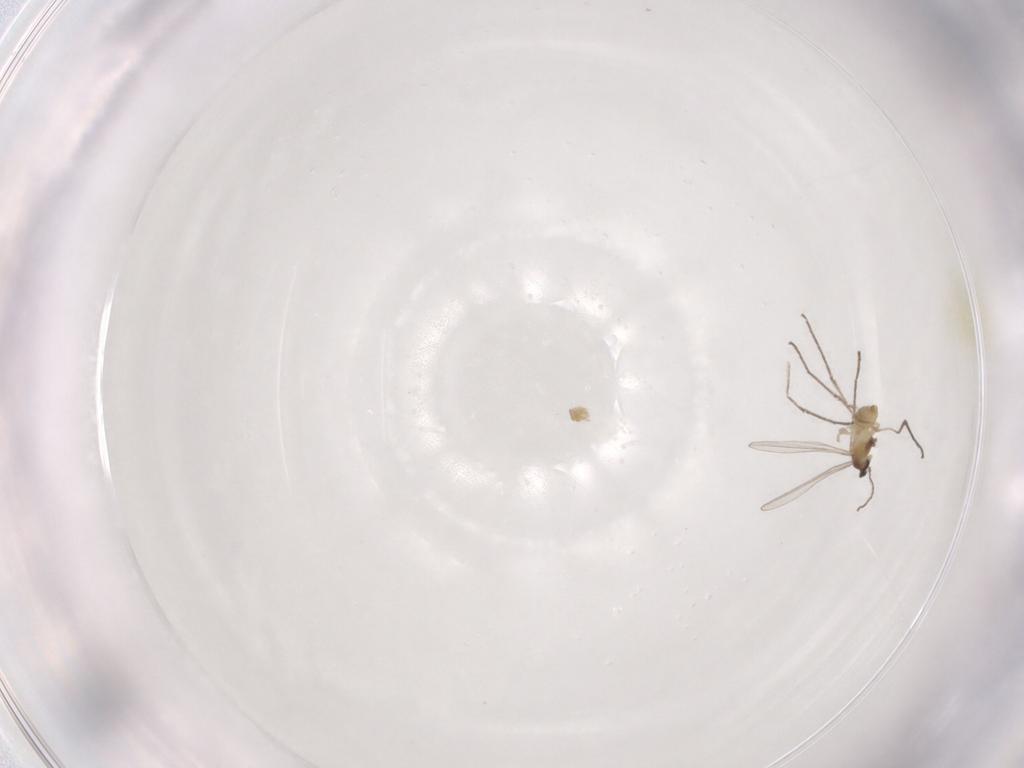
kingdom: Animalia
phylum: Arthropoda
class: Insecta
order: Diptera
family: Cecidomyiidae
